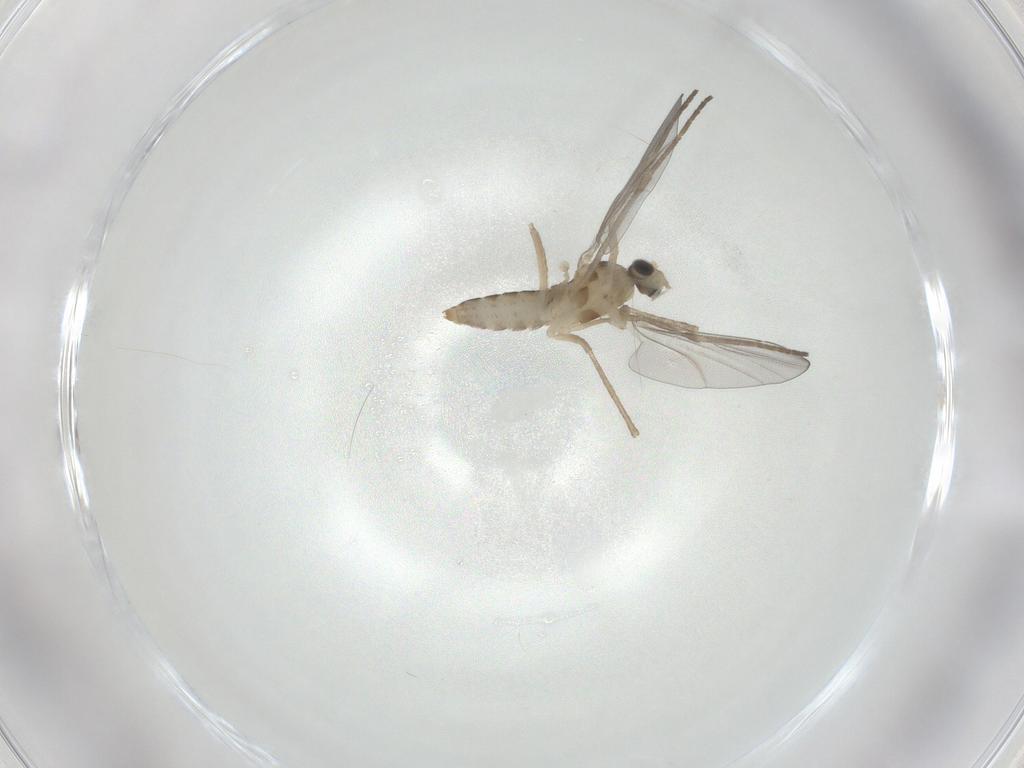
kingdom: Animalia
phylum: Arthropoda
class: Insecta
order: Diptera
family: Cecidomyiidae
